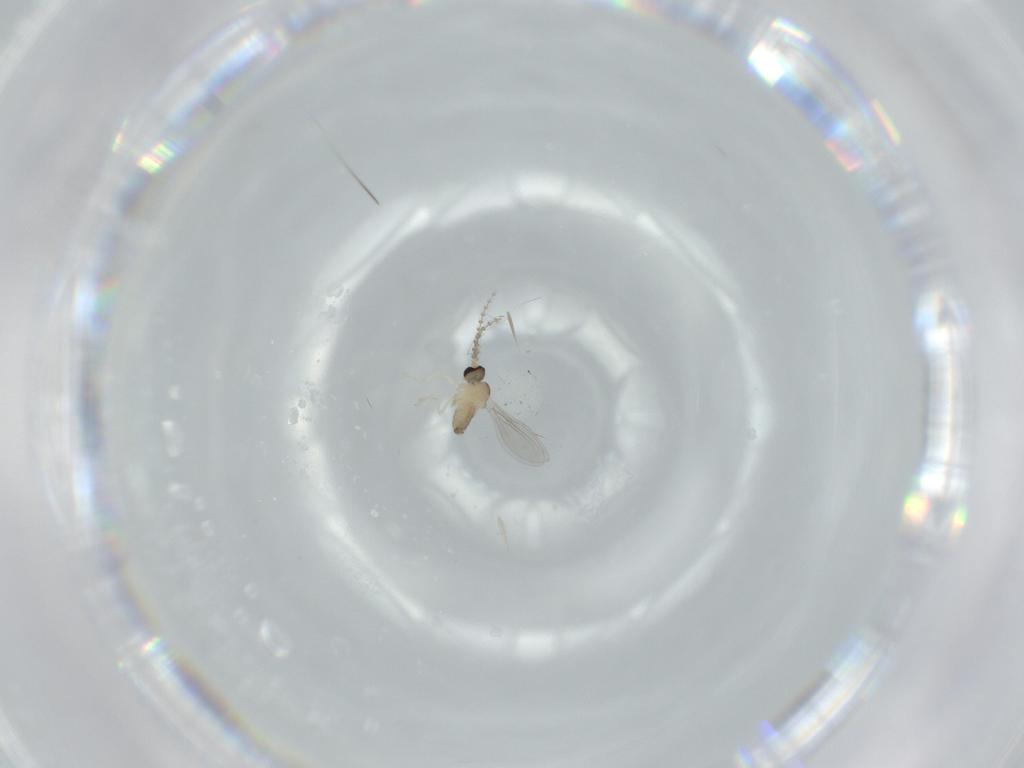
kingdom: Animalia
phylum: Arthropoda
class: Insecta
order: Diptera
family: Cecidomyiidae
